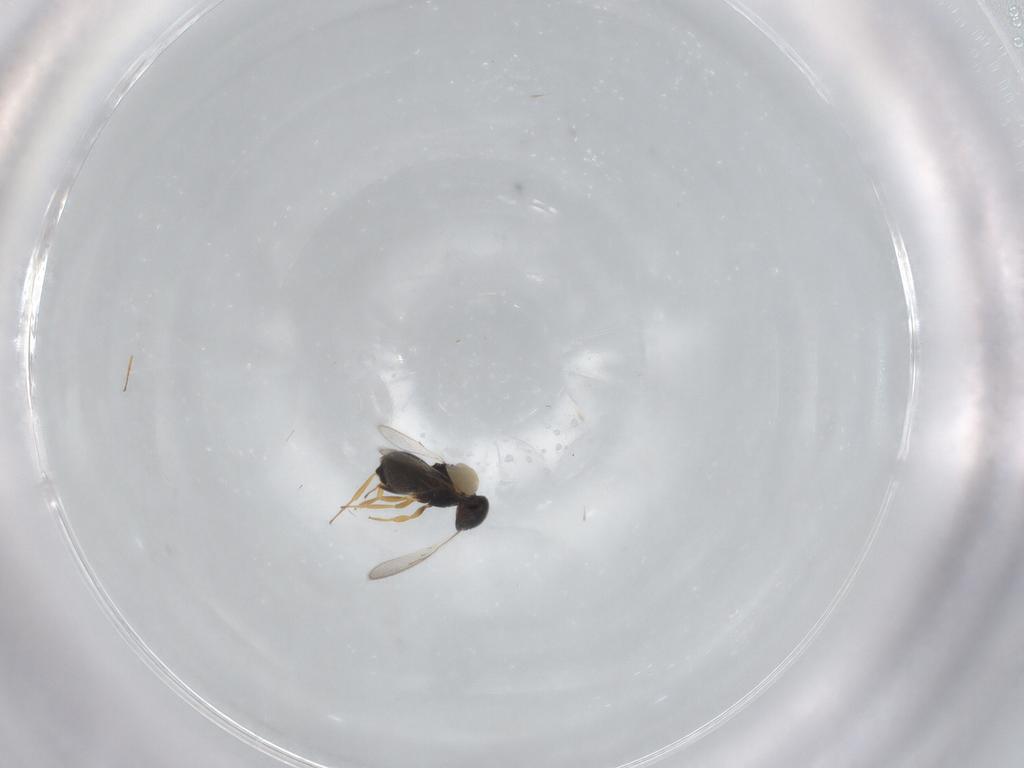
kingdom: Animalia
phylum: Arthropoda
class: Insecta
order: Hymenoptera
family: Scelionidae
